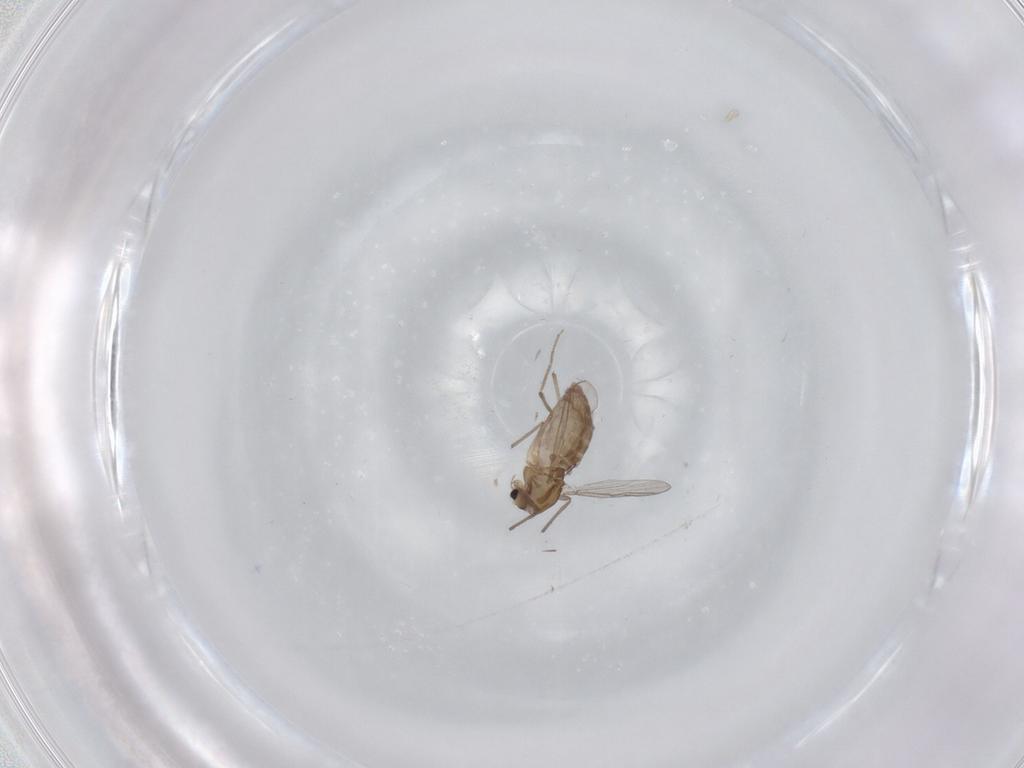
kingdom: Animalia
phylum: Arthropoda
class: Insecta
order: Diptera
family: Chironomidae
